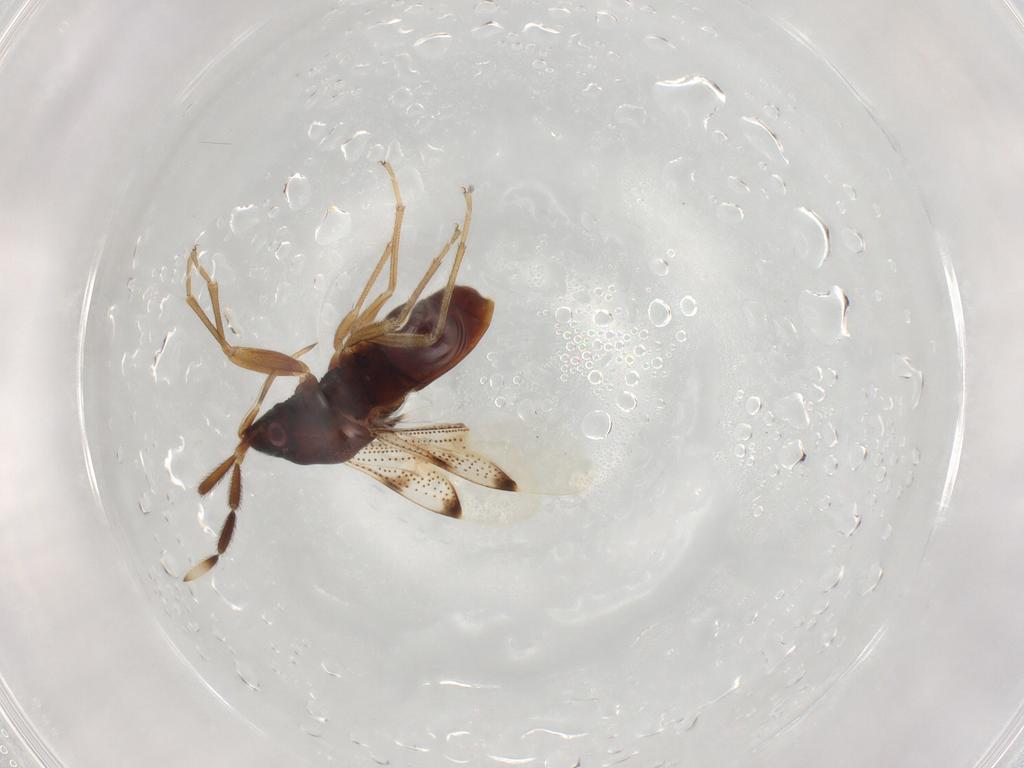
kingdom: Animalia
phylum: Arthropoda
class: Insecta
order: Hemiptera
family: Rhyparochromidae
